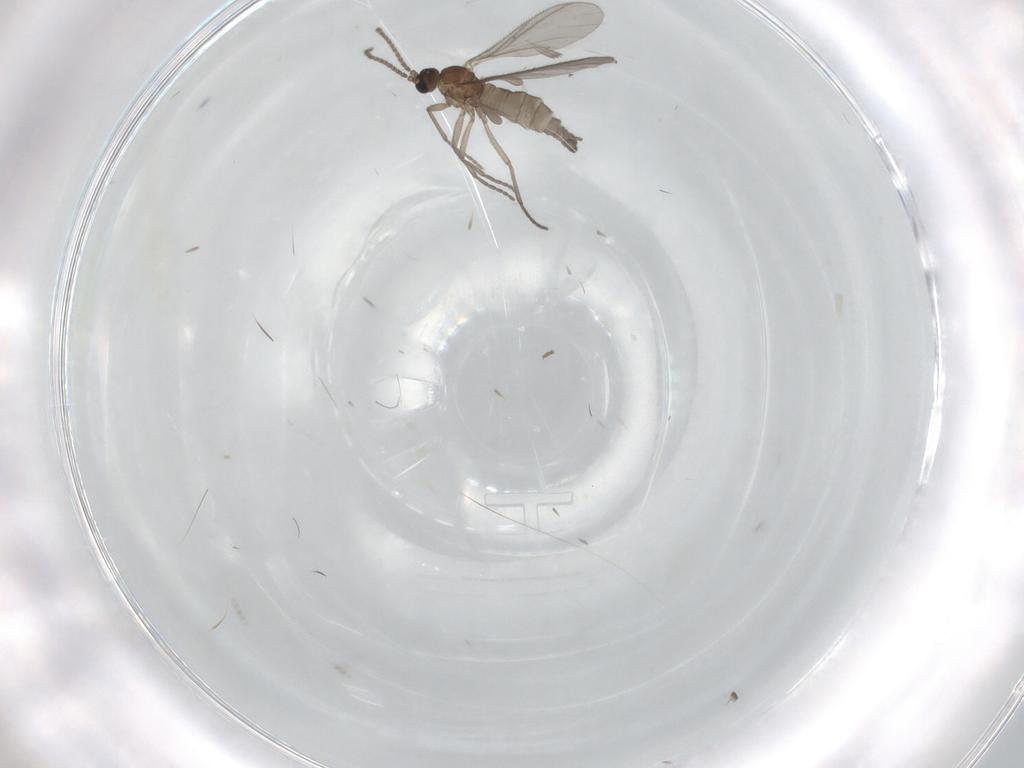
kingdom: Animalia
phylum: Arthropoda
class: Insecta
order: Diptera
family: Sciaridae
